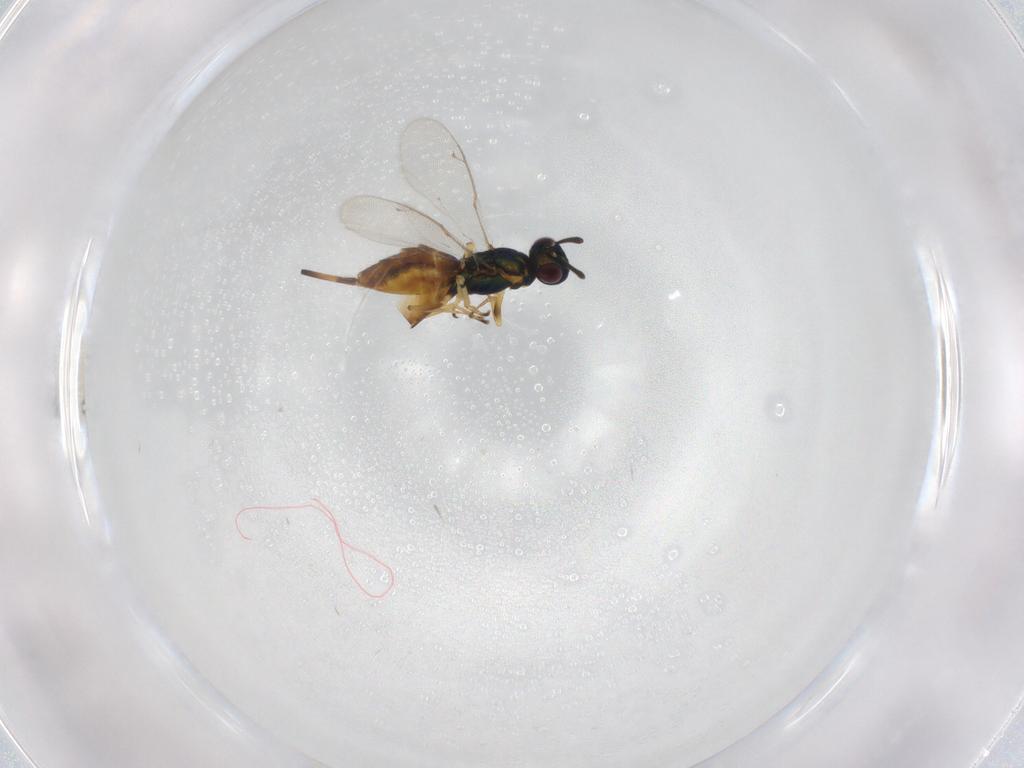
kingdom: Animalia
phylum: Arthropoda
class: Insecta
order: Hymenoptera
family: Eupelmidae
